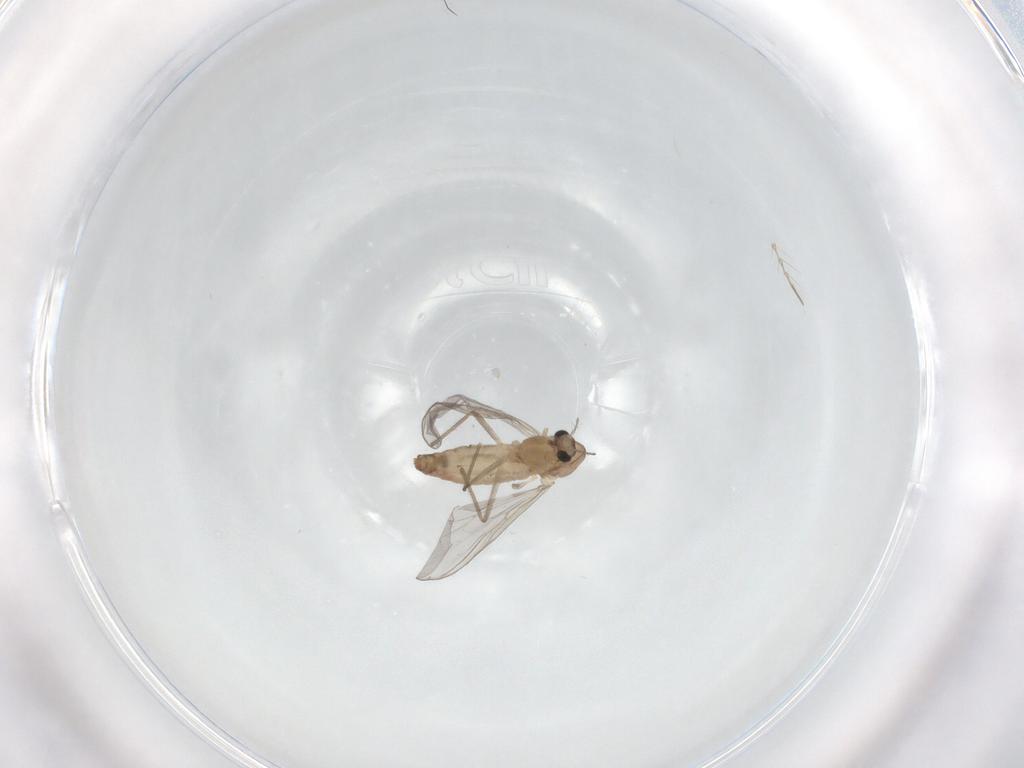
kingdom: Animalia
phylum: Arthropoda
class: Insecta
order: Diptera
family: Chironomidae
